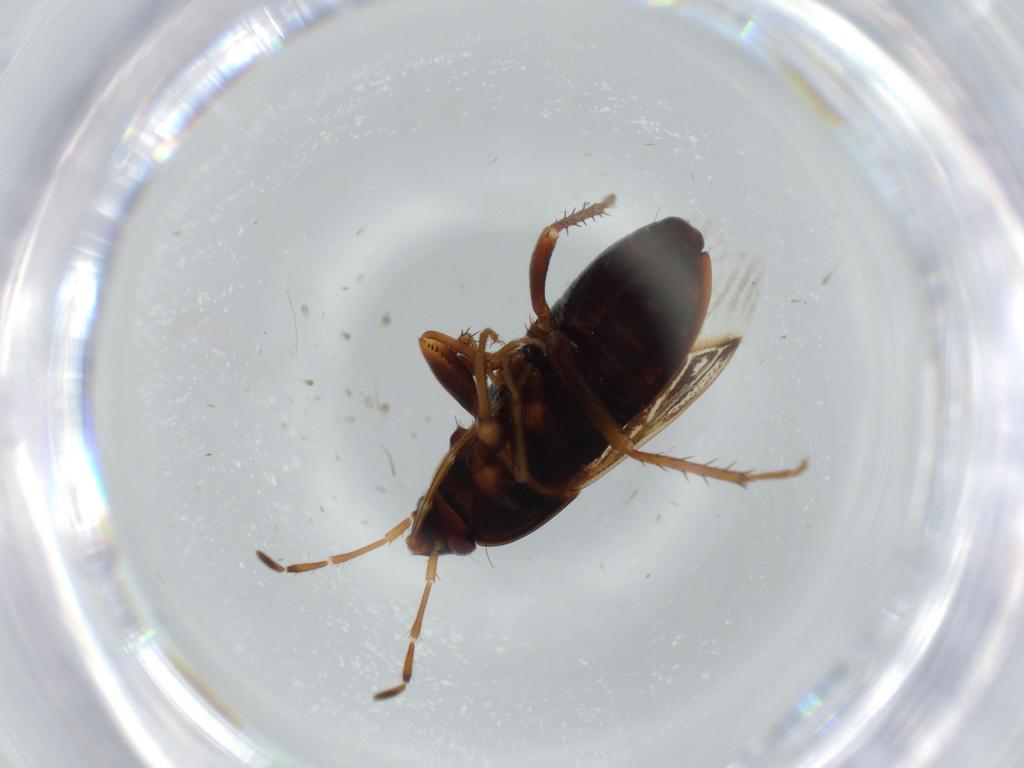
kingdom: Animalia
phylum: Arthropoda
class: Insecta
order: Hemiptera
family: Rhyparochromidae
